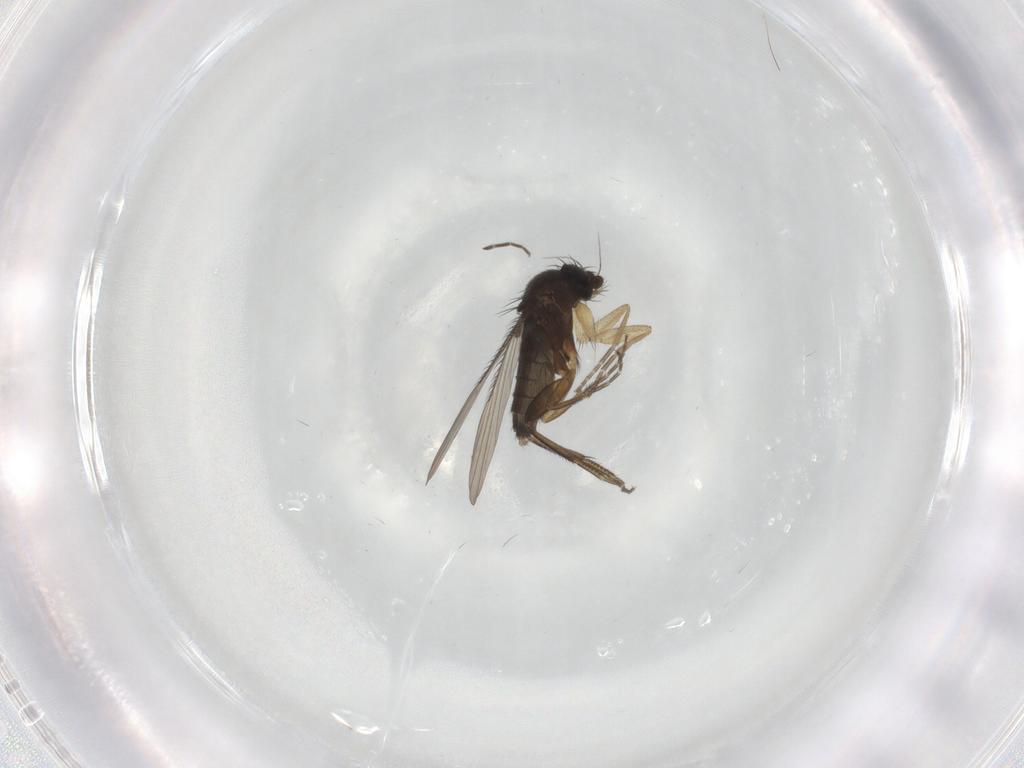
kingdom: Animalia
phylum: Arthropoda
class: Insecta
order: Diptera
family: Phoridae
